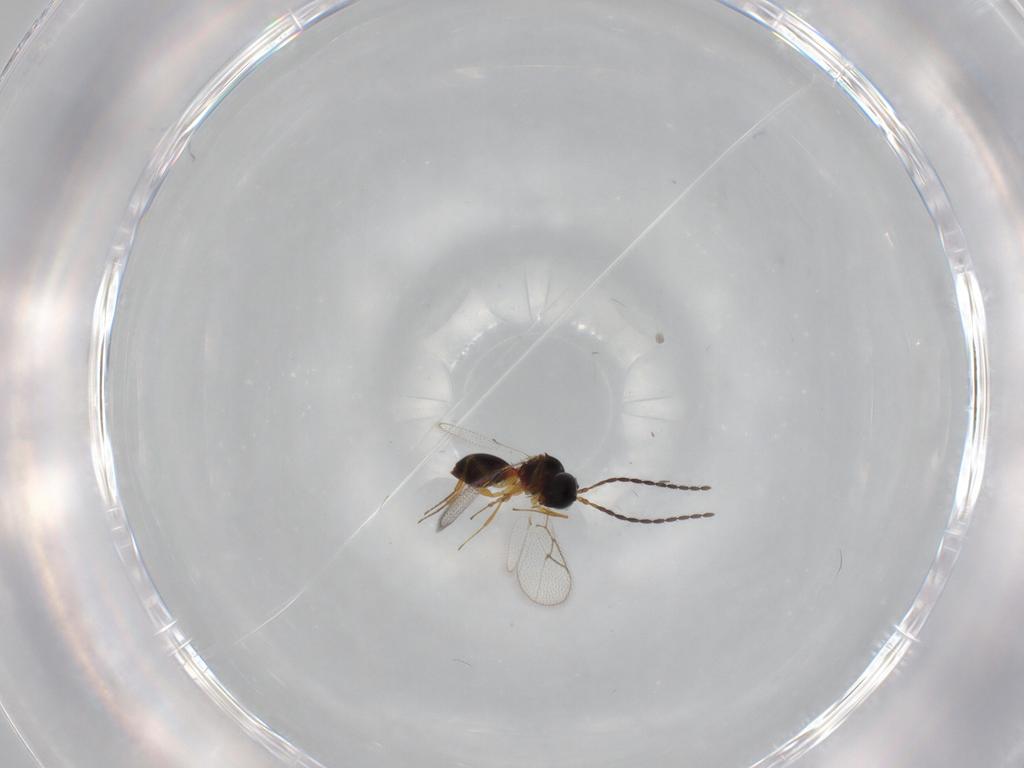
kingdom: Animalia
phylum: Arthropoda
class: Insecta
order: Hymenoptera
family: Figitidae
